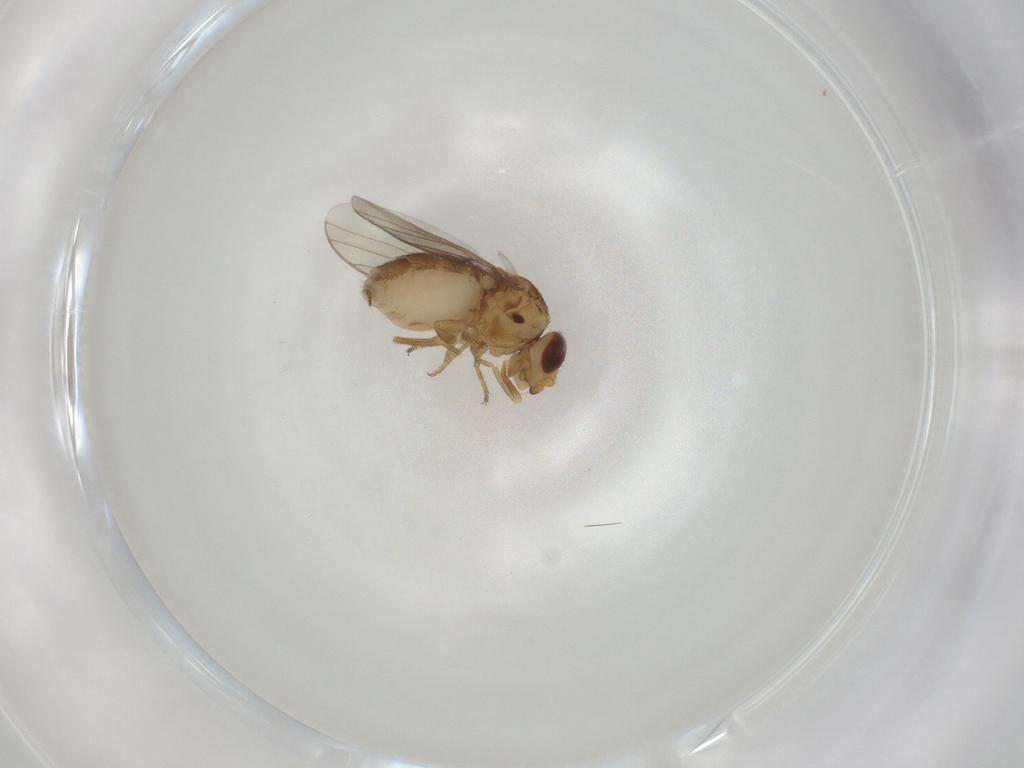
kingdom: Animalia
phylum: Arthropoda
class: Insecta
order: Diptera
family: Chloropidae
